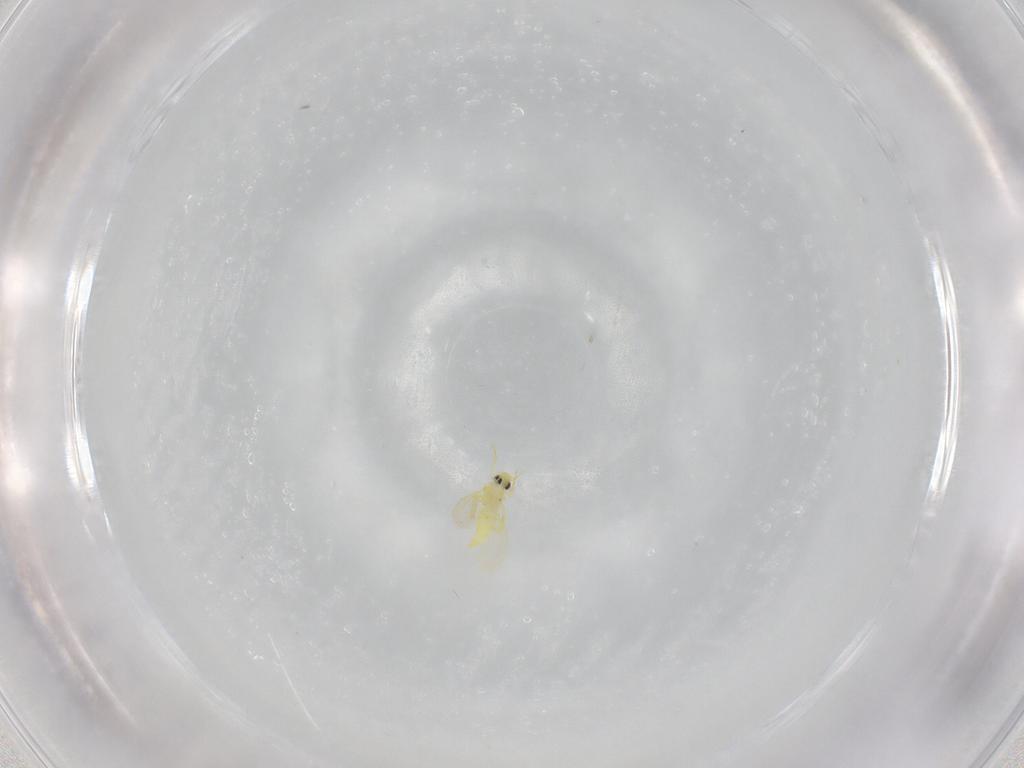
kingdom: Animalia
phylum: Arthropoda
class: Insecta
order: Hemiptera
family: Aleyrodidae
